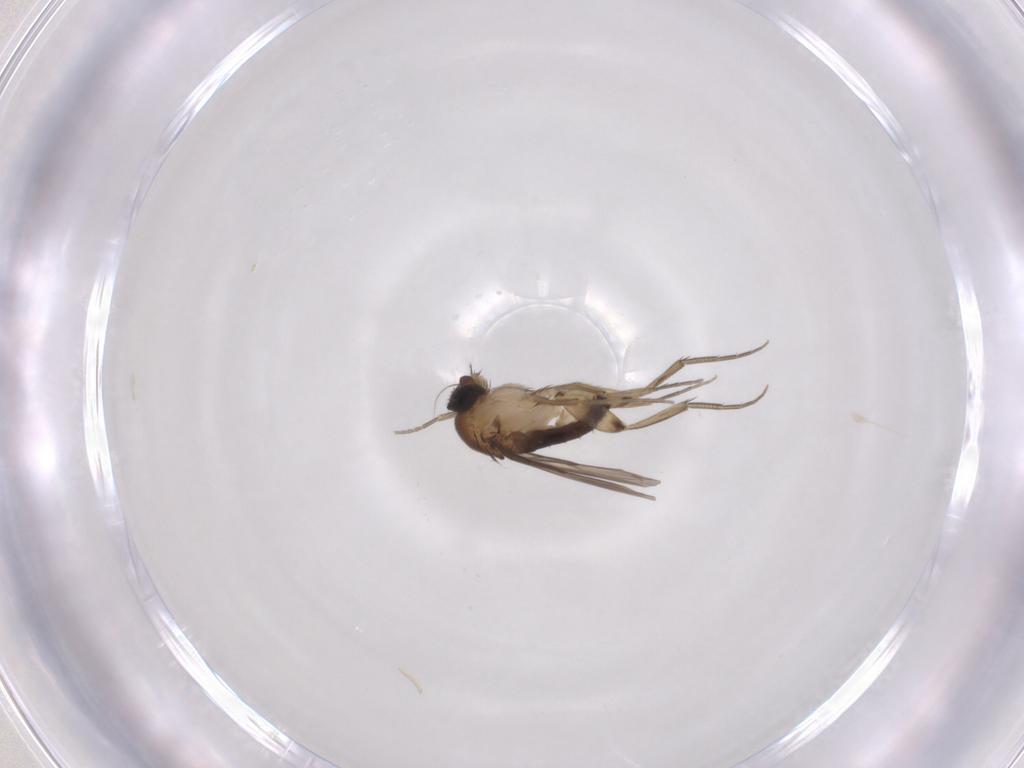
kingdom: Animalia
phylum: Arthropoda
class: Insecta
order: Diptera
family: Phoridae
